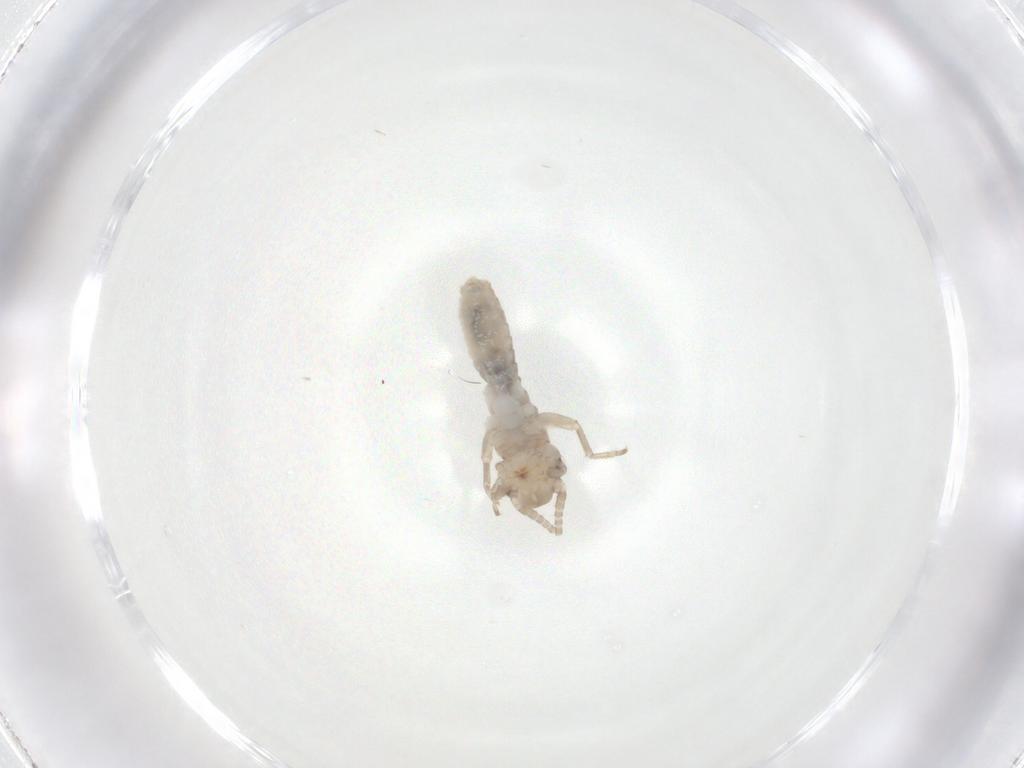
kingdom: Animalia
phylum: Arthropoda
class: Insecta
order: Orthoptera
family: Gryllidae
